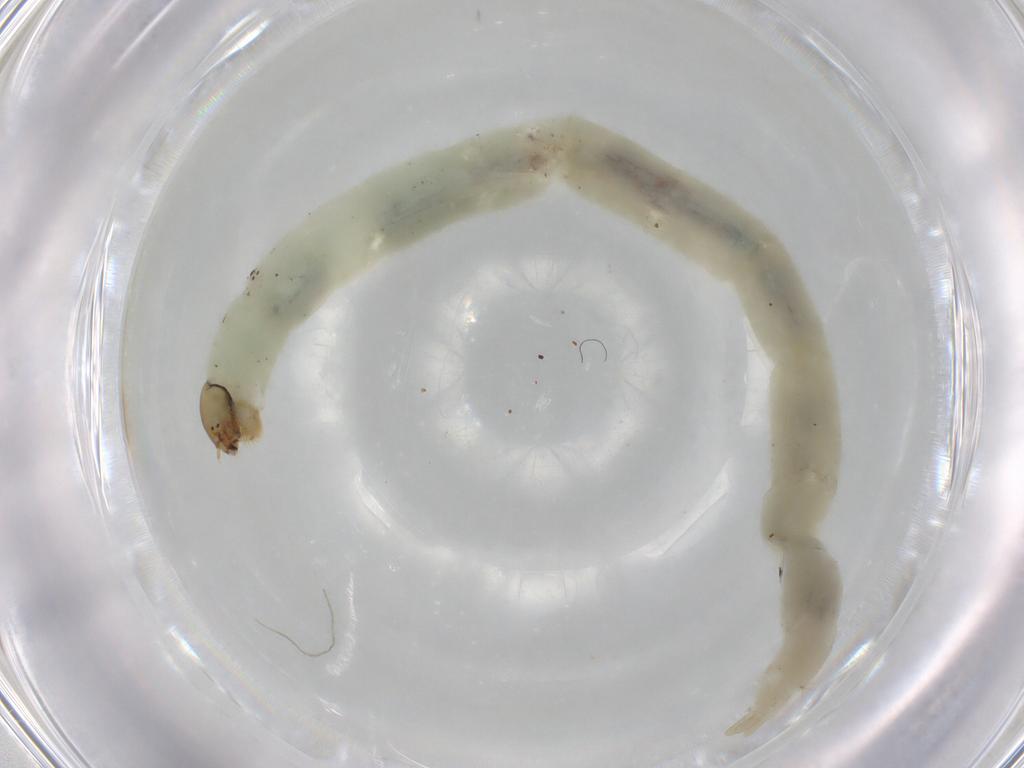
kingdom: Animalia
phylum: Arthropoda
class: Insecta
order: Diptera
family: Chironomidae
